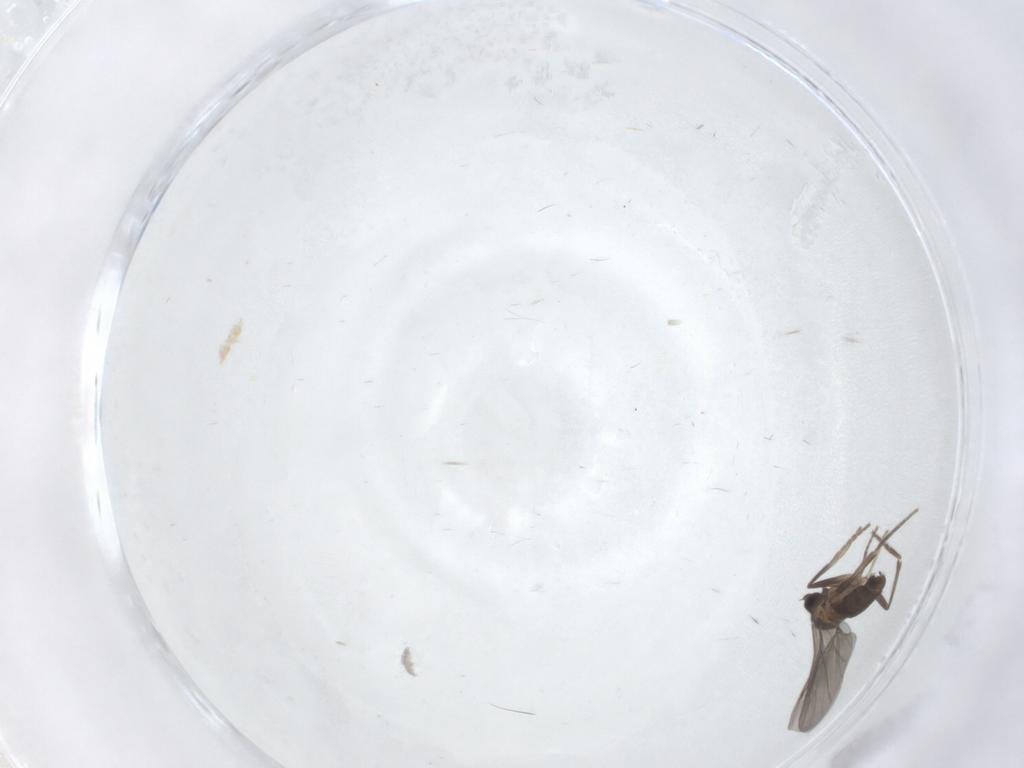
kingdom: Animalia
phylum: Arthropoda
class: Insecta
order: Diptera
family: Phoridae
